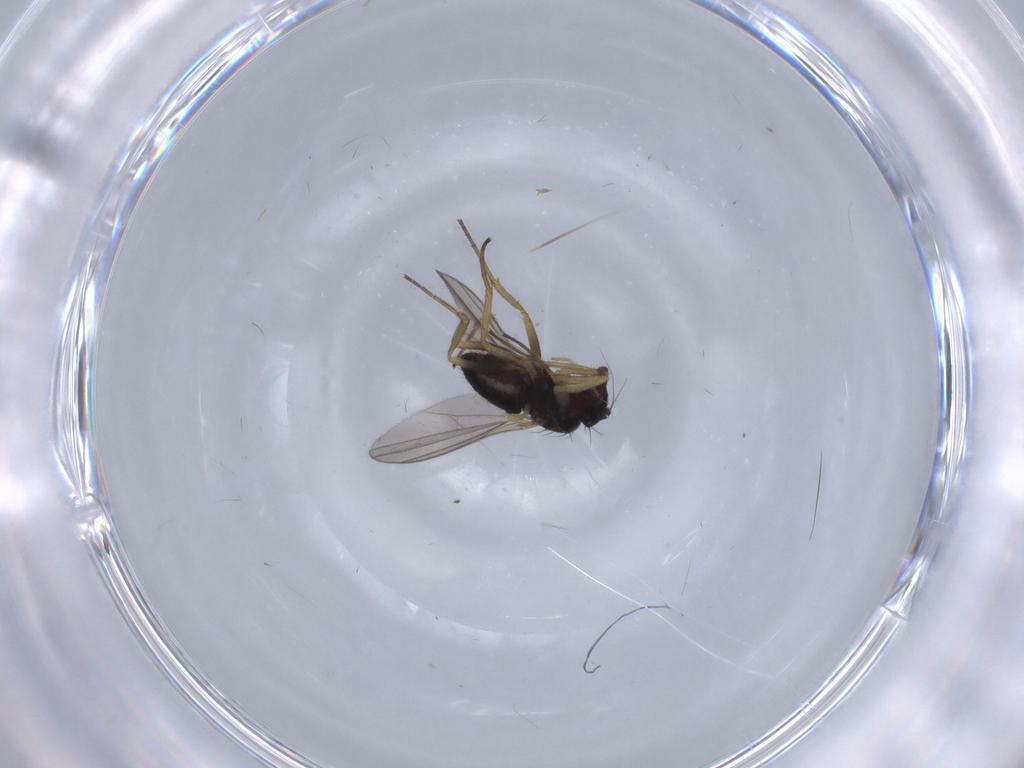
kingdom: Animalia
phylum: Arthropoda
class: Insecta
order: Diptera
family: Dolichopodidae
